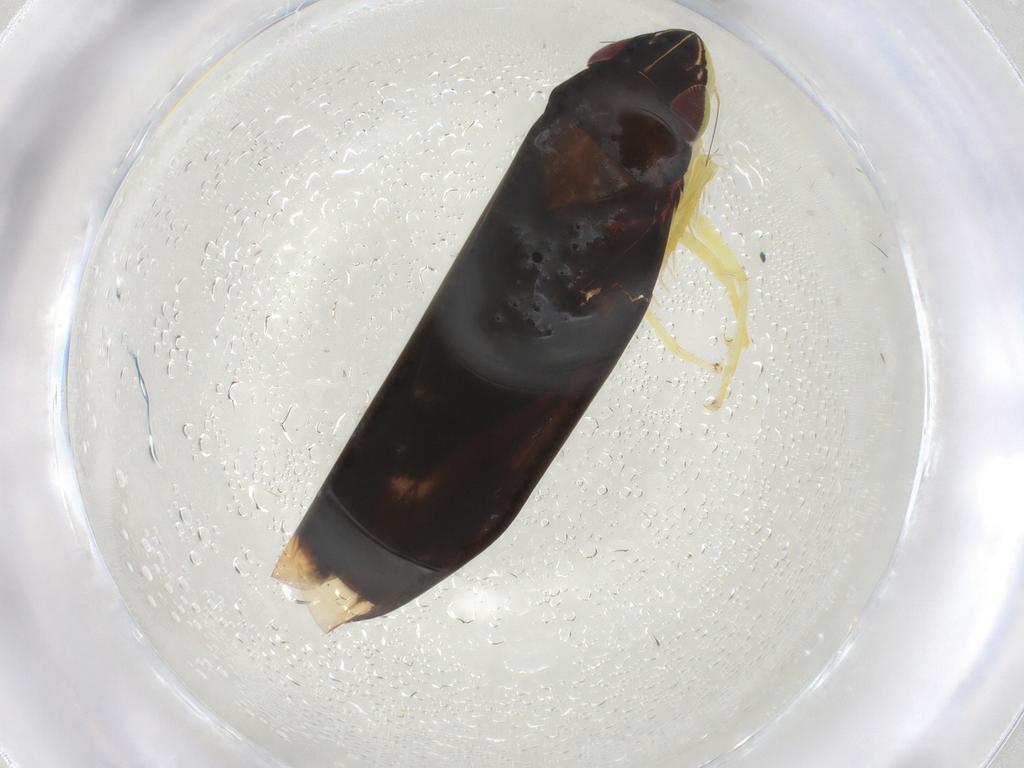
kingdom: Animalia
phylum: Arthropoda
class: Insecta
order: Hemiptera
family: Cicadellidae
